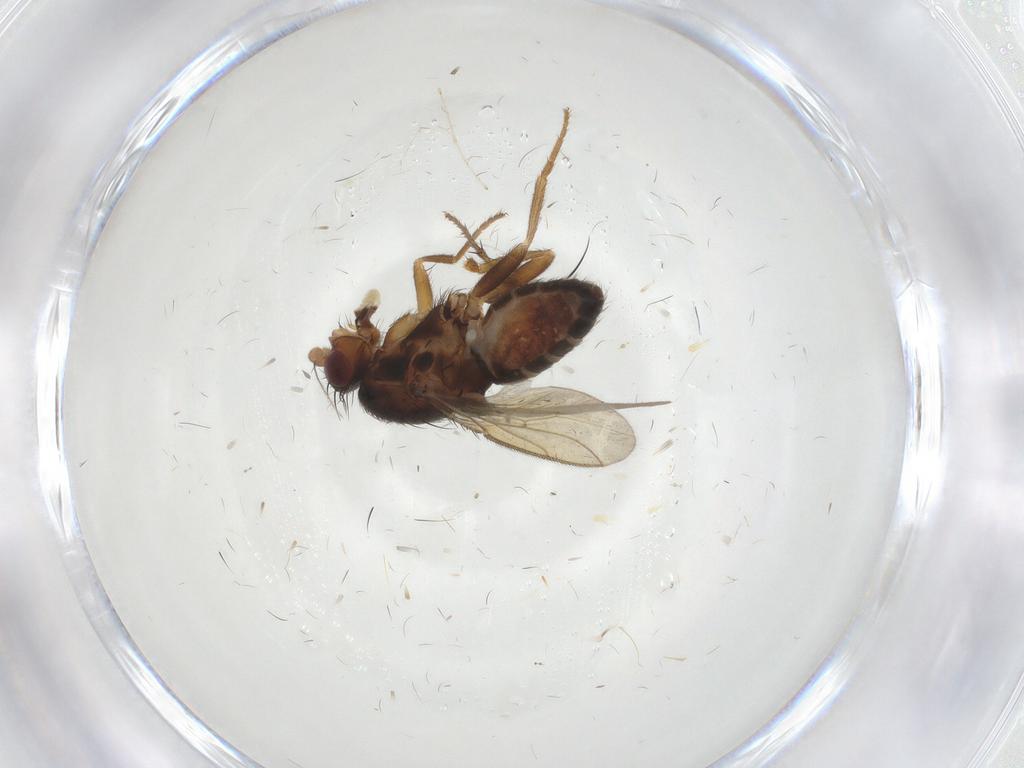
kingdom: Animalia
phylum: Arthropoda
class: Insecta
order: Diptera
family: Sphaeroceridae
